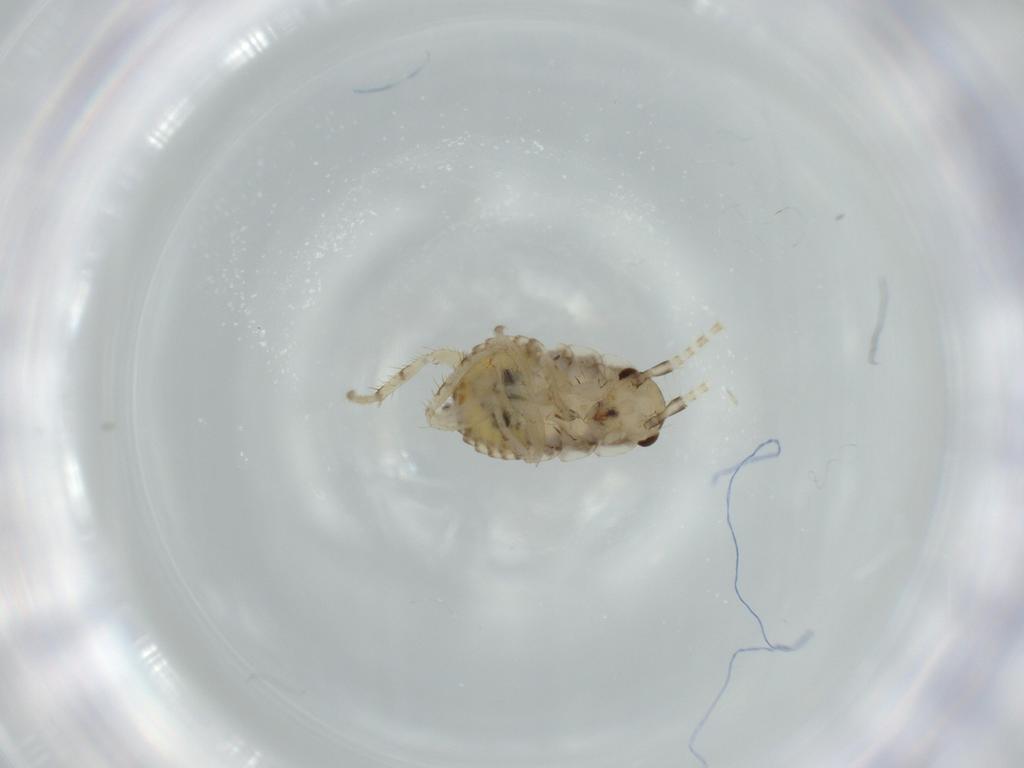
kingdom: Animalia
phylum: Arthropoda
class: Insecta
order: Blattodea
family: Ectobiidae
